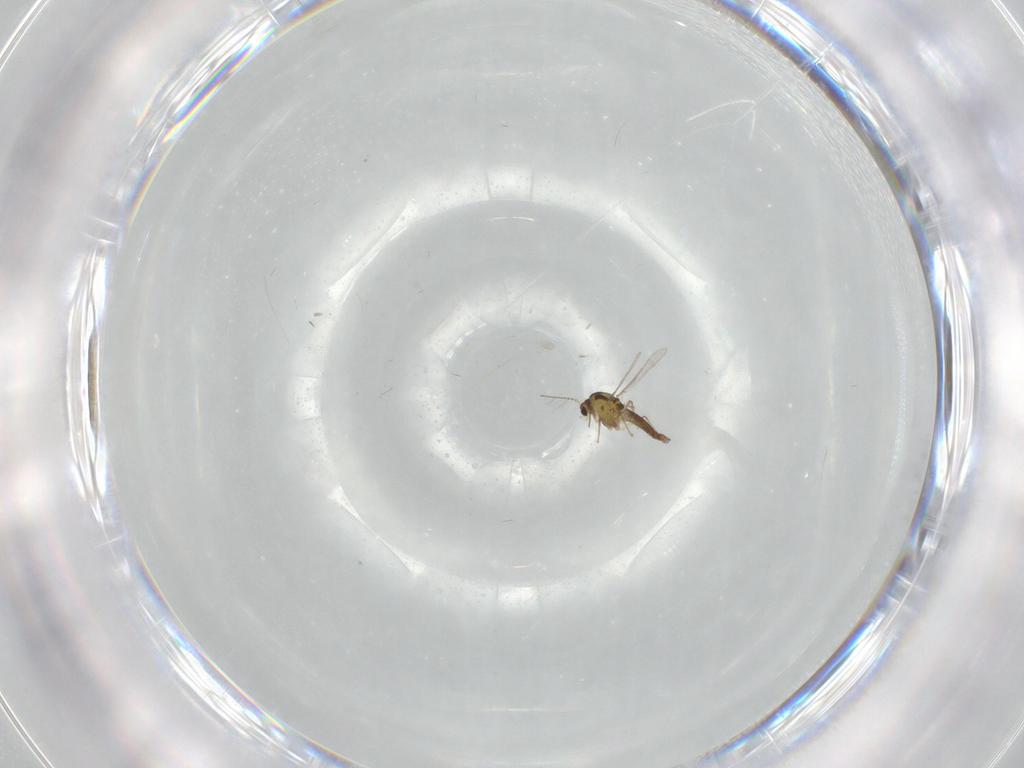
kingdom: Animalia
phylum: Arthropoda
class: Insecta
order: Diptera
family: Chironomidae
